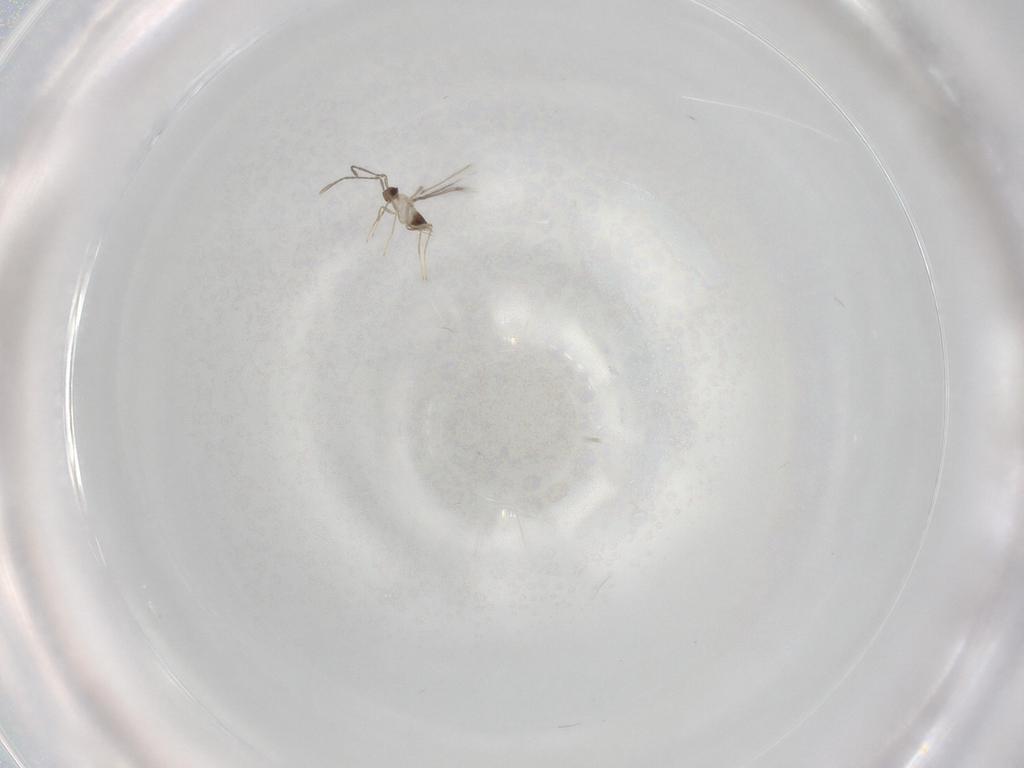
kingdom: Animalia
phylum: Arthropoda
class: Insecta
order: Hymenoptera
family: Mymaridae
